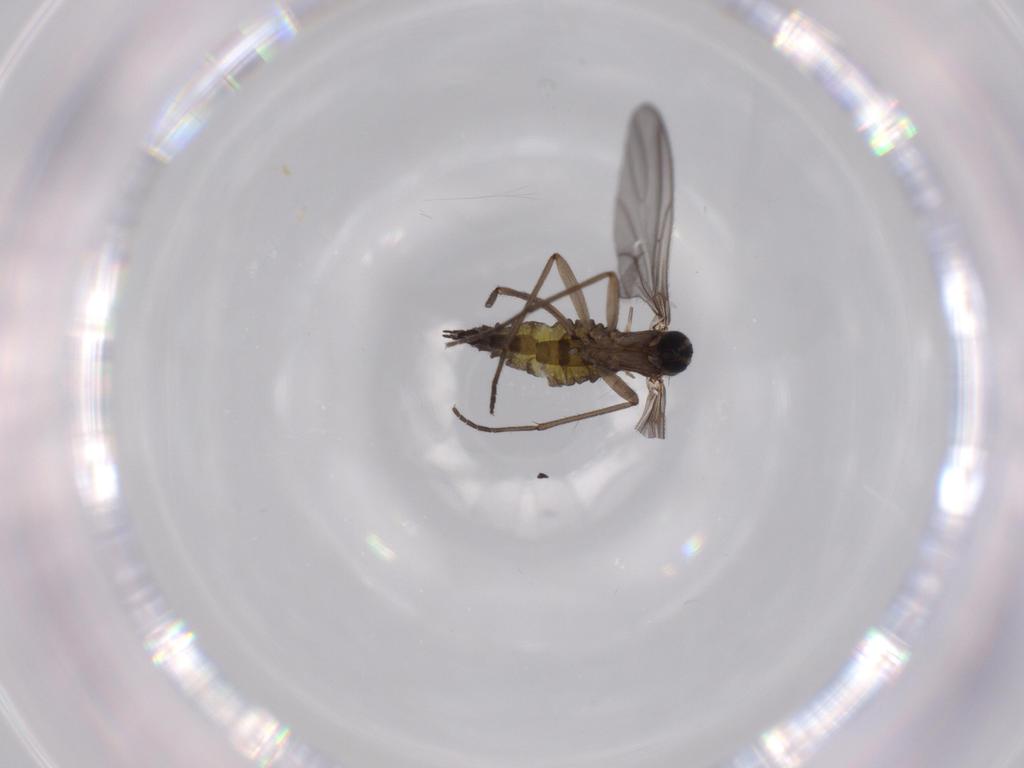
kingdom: Animalia
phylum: Arthropoda
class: Insecta
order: Diptera
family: Sciaridae
